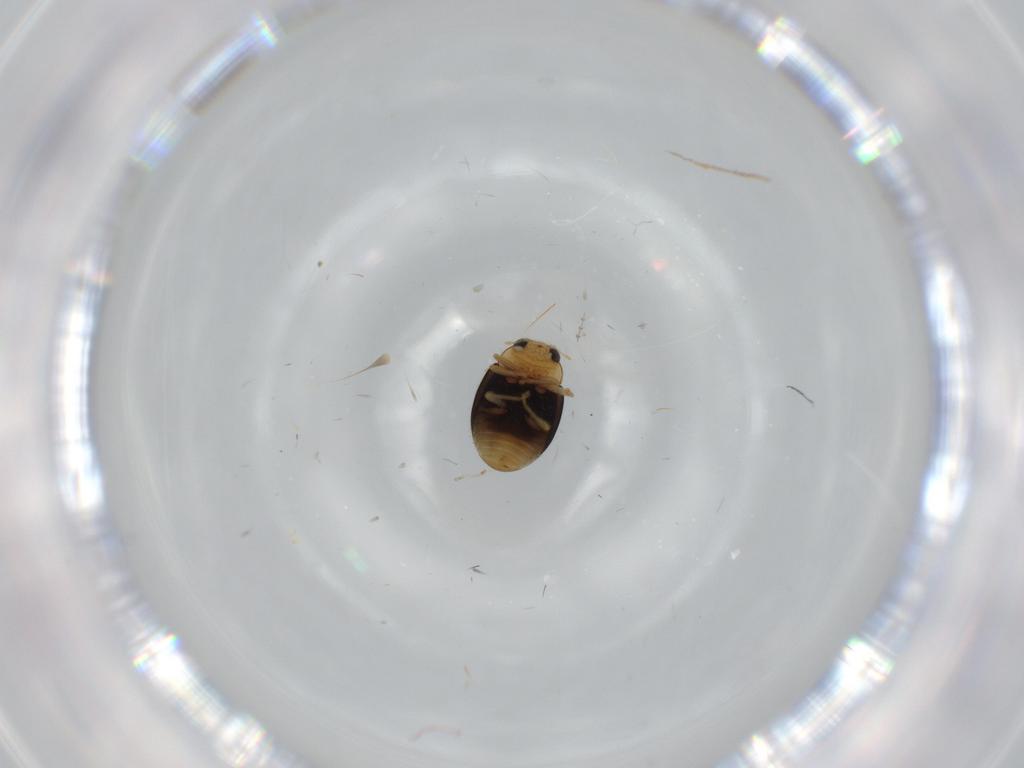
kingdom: Animalia
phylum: Arthropoda
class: Insecta
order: Coleoptera
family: Coccinellidae
